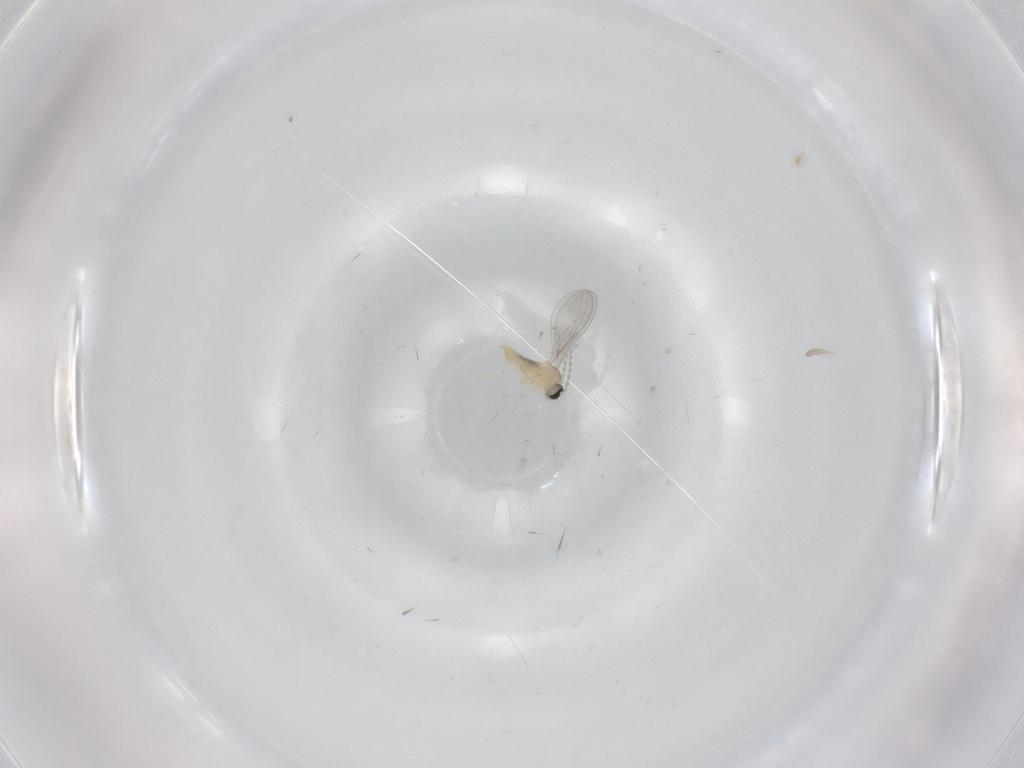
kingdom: Animalia
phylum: Arthropoda
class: Insecta
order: Diptera
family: Cecidomyiidae
